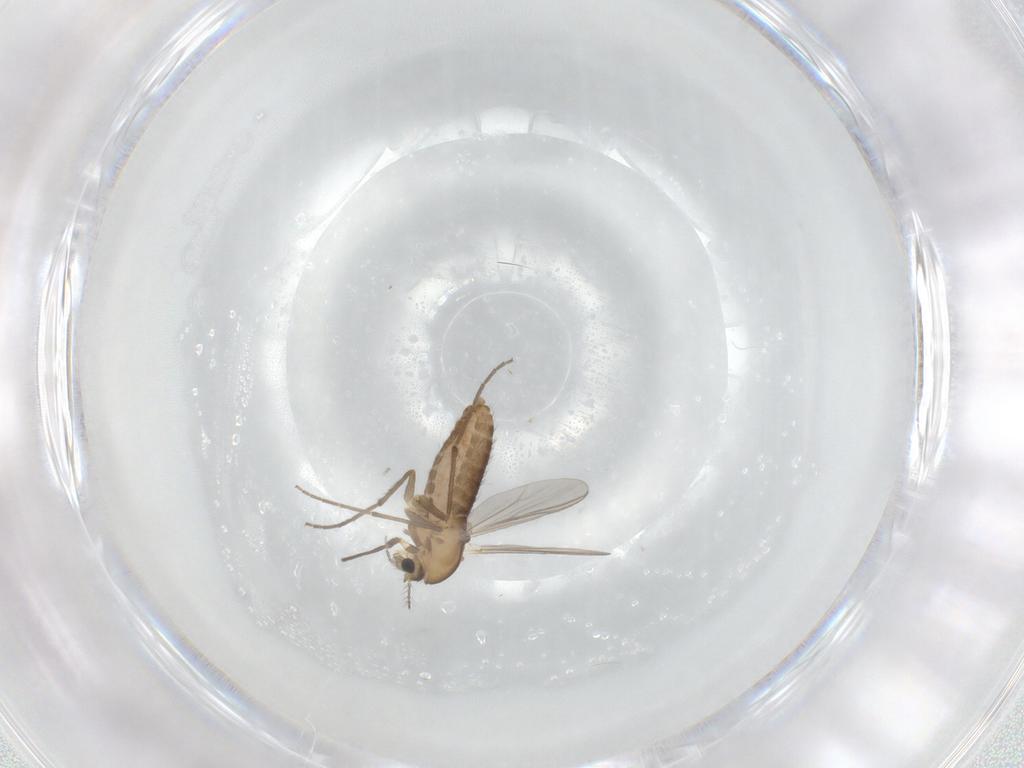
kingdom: Animalia
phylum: Arthropoda
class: Insecta
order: Diptera
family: Chironomidae
